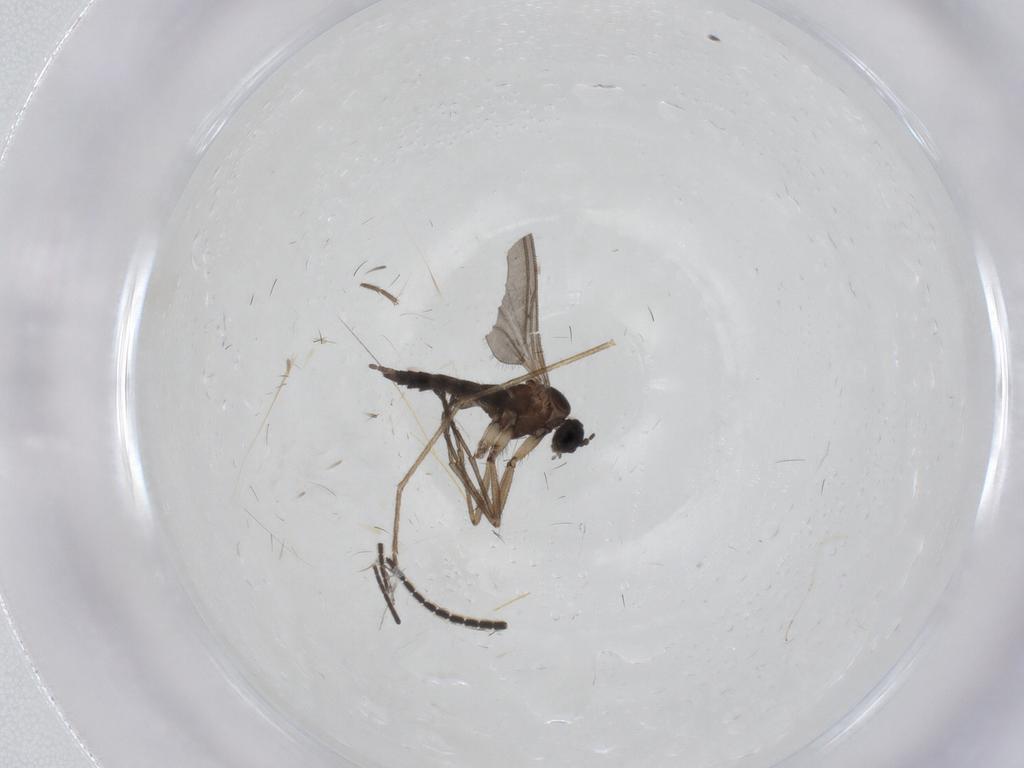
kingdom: Animalia
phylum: Arthropoda
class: Insecta
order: Diptera
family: Sciaridae
